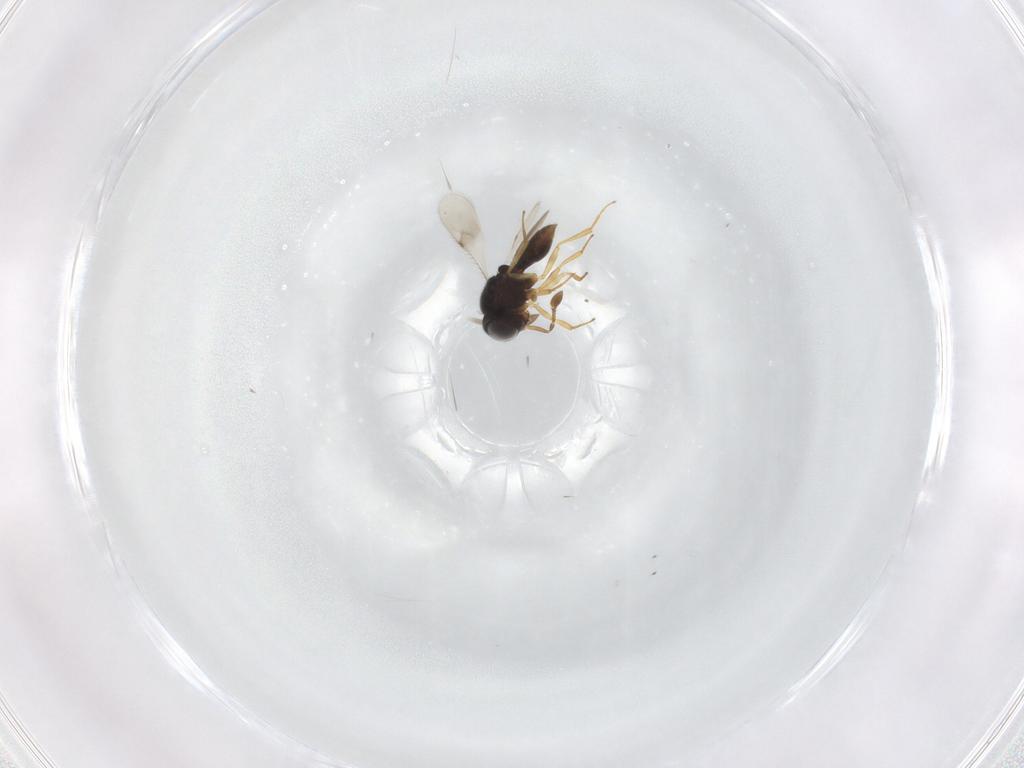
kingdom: Animalia
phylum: Arthropoda
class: Insecta
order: Hymenoptera
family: Scelionidae
